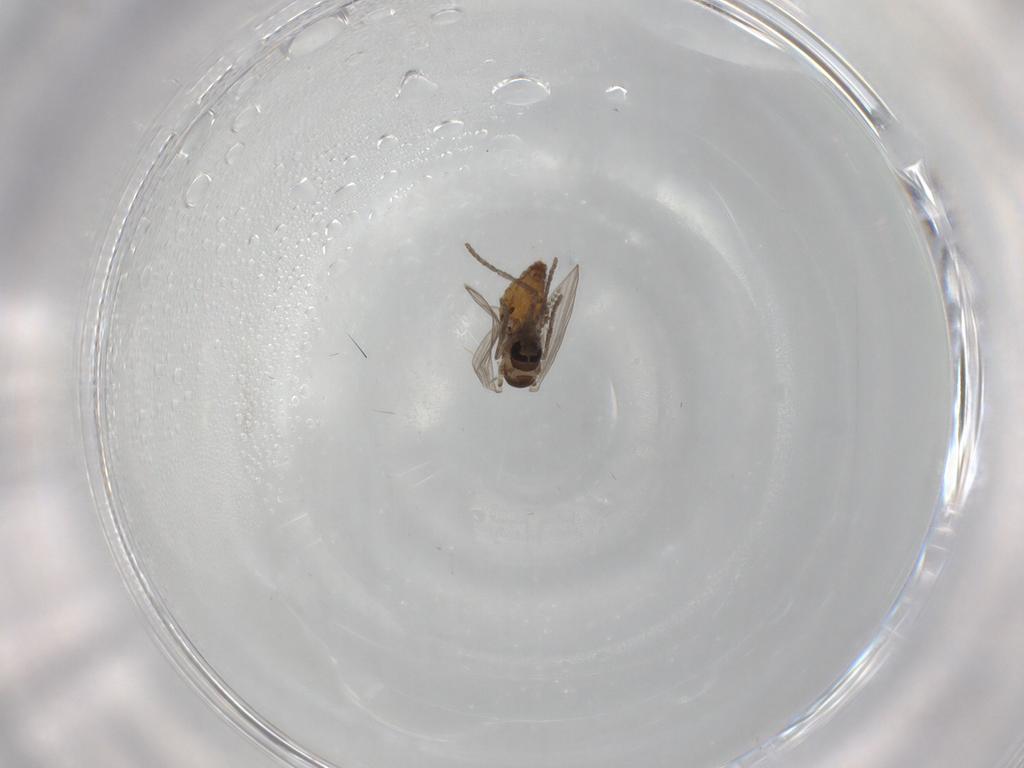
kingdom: Animalia
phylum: Arthropoda
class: Insecta
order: Diptera
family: Psychodidae
